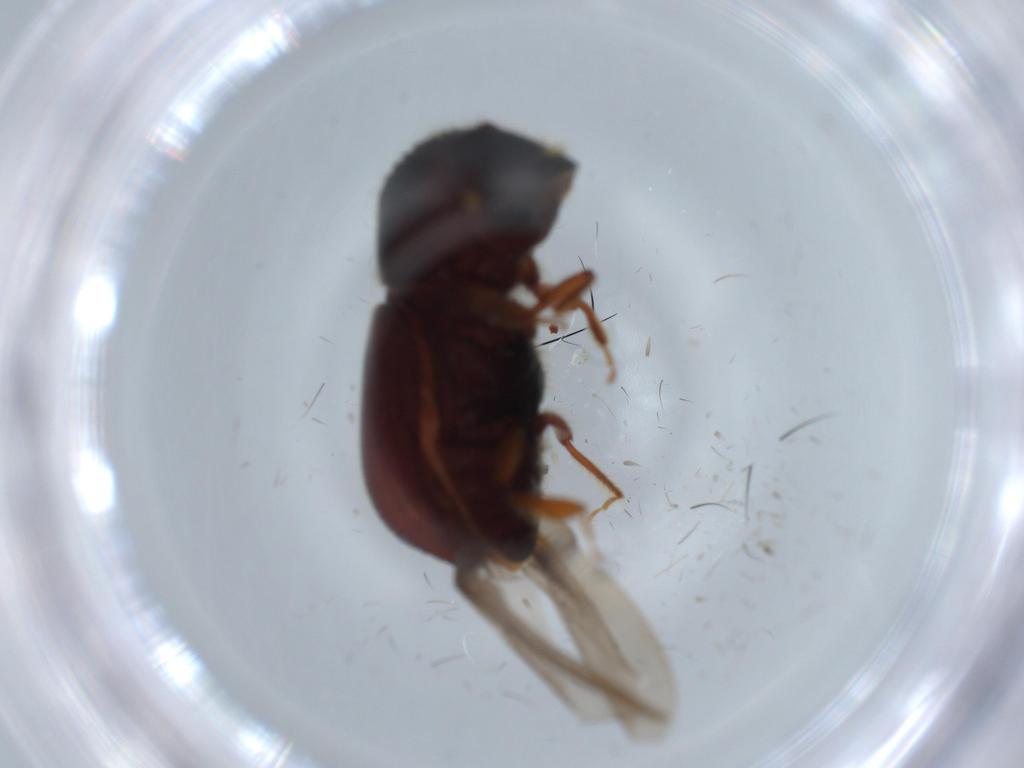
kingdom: Animalia
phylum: Arthropoda
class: Insecta
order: Coleoptera
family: Curculionidae
